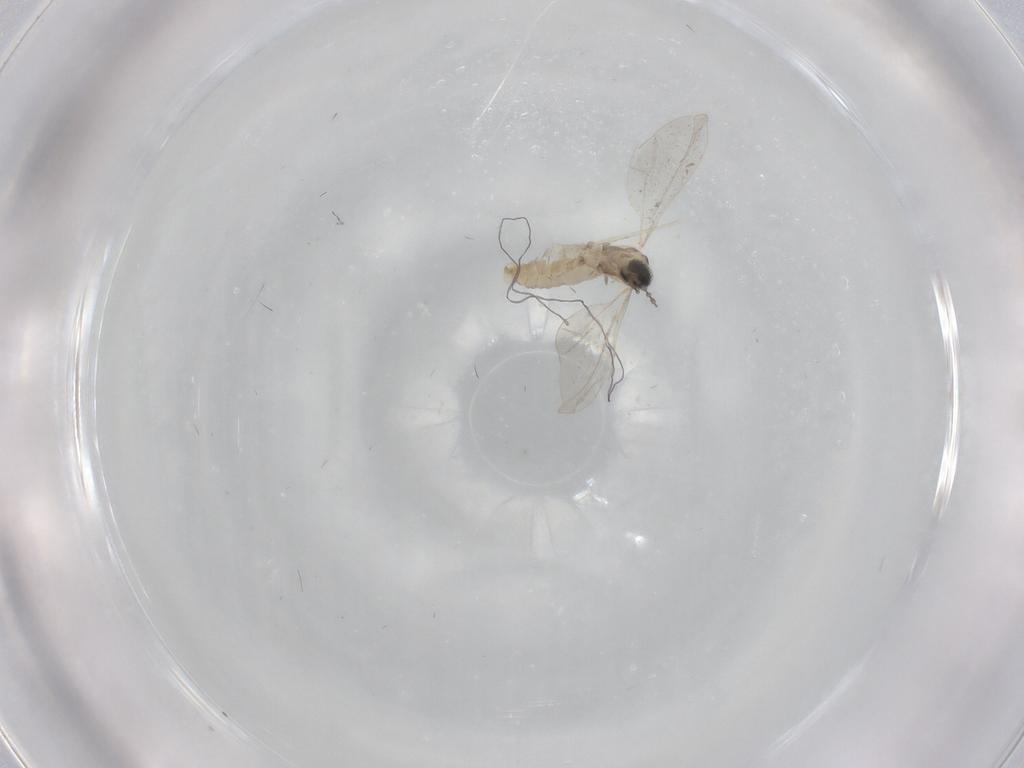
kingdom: Animalia
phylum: Arthropoda
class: Insecta
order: Diptera
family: Cecidomyiidae
